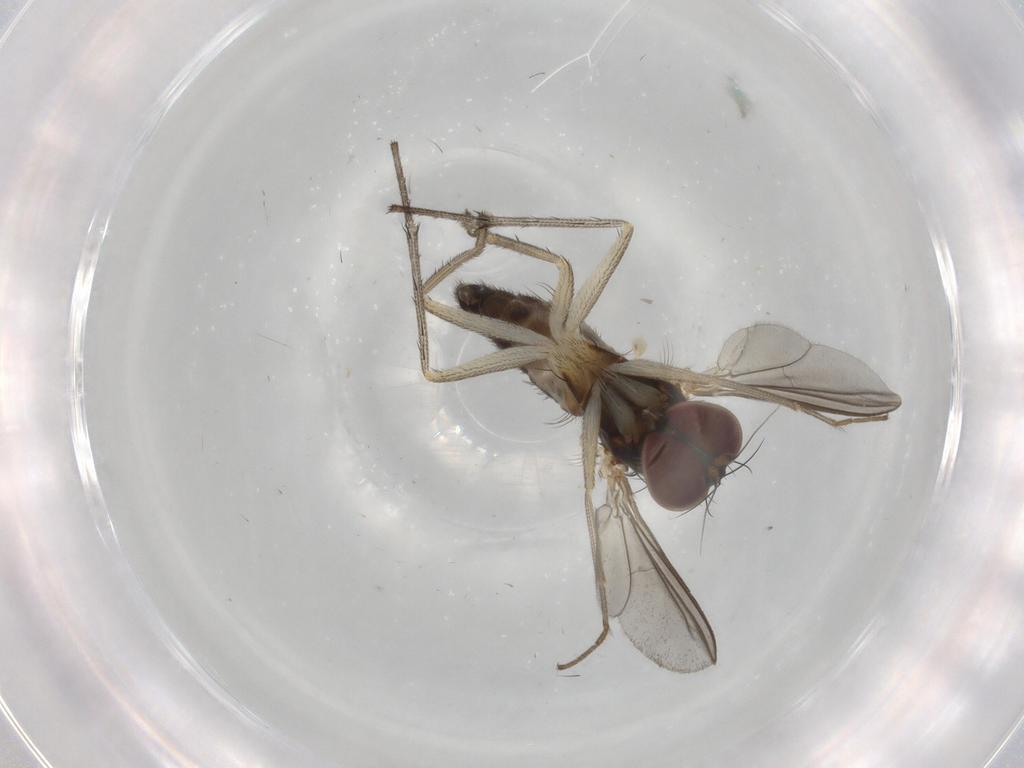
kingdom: Animalia
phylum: Arthropoda
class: Insecta
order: Diptera
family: Dolichopodidae
